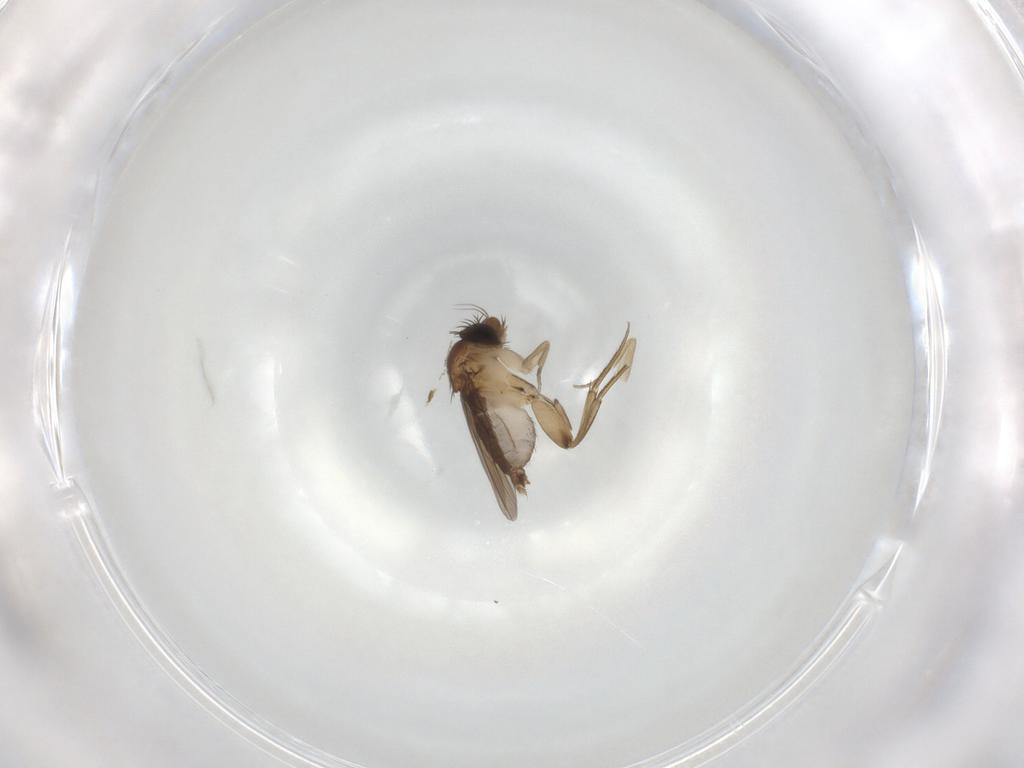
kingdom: Animalia
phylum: Arthropoda
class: Insecta
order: Diptera
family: Phoridae
